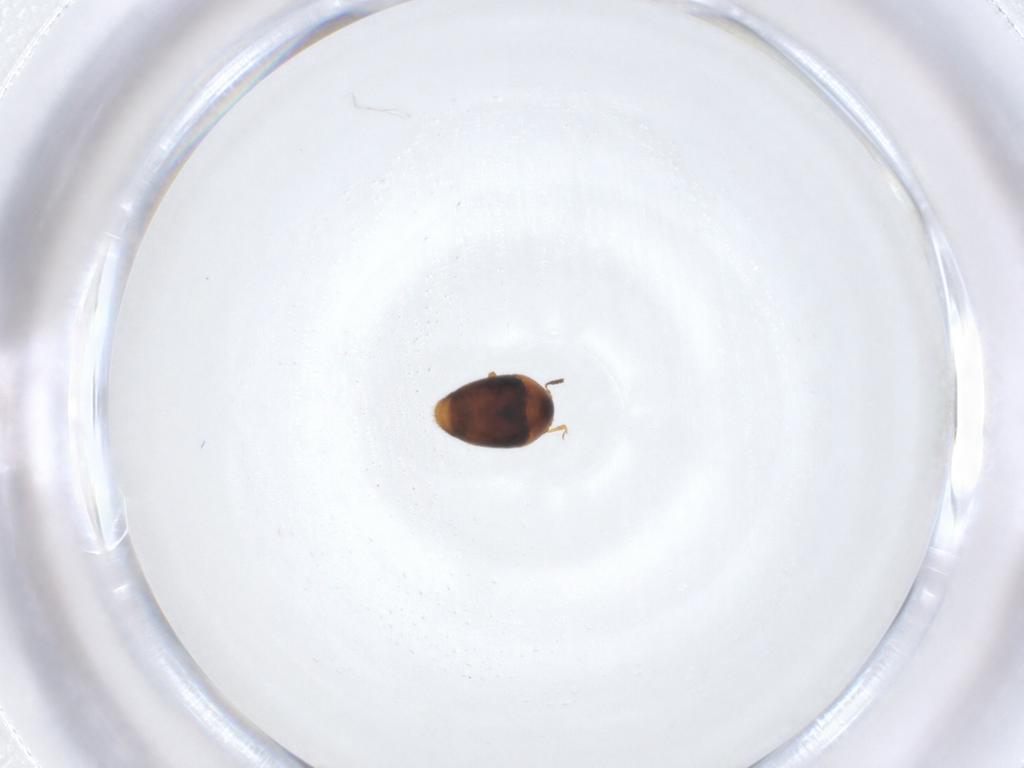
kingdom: Animalia
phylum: Arthropoda
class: Insecta
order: Coleoptera
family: Corylophidae
